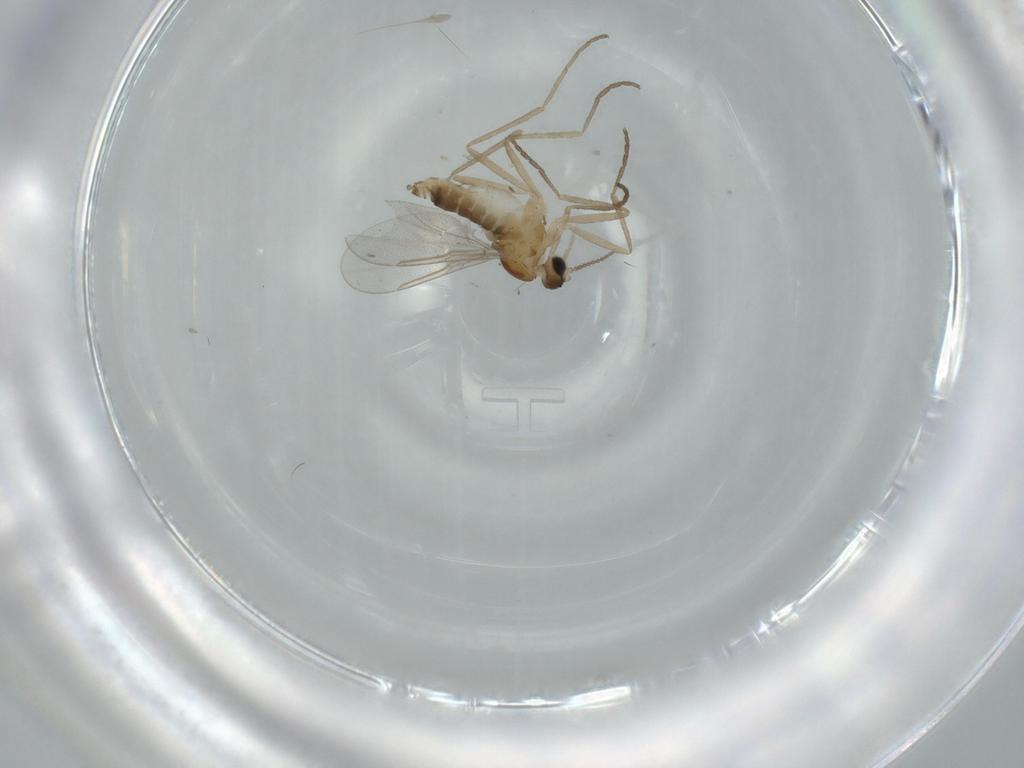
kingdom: Animalia
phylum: Arthropoda
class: Insecta
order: Diptera
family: Cecidomyiidae
